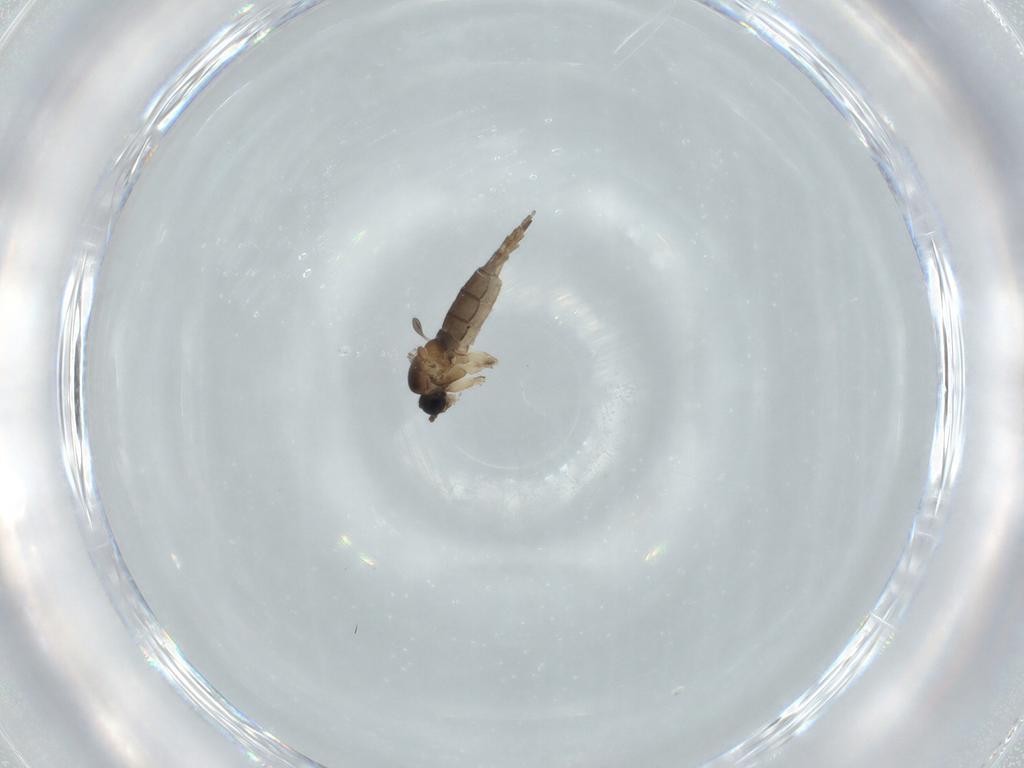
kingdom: Animalia
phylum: Arthropoda
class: Insecta
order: Diptera
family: Sciaridae
